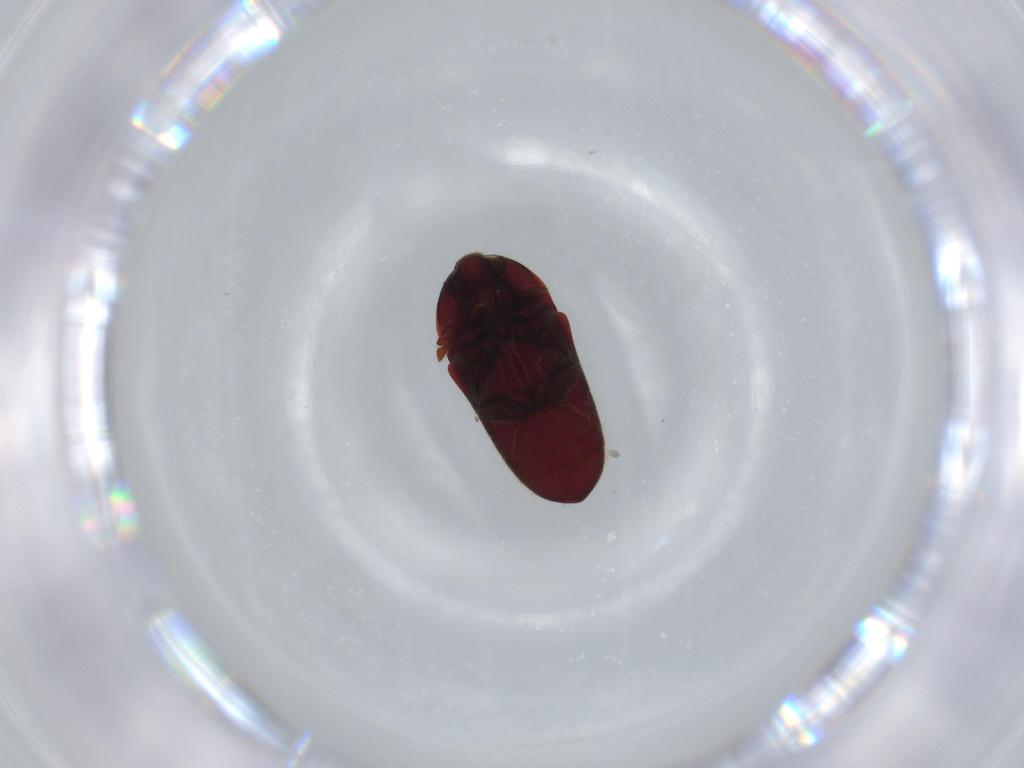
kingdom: Animalia
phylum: Arthropoda
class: Insecta
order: Coleoptera
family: Throscidae
